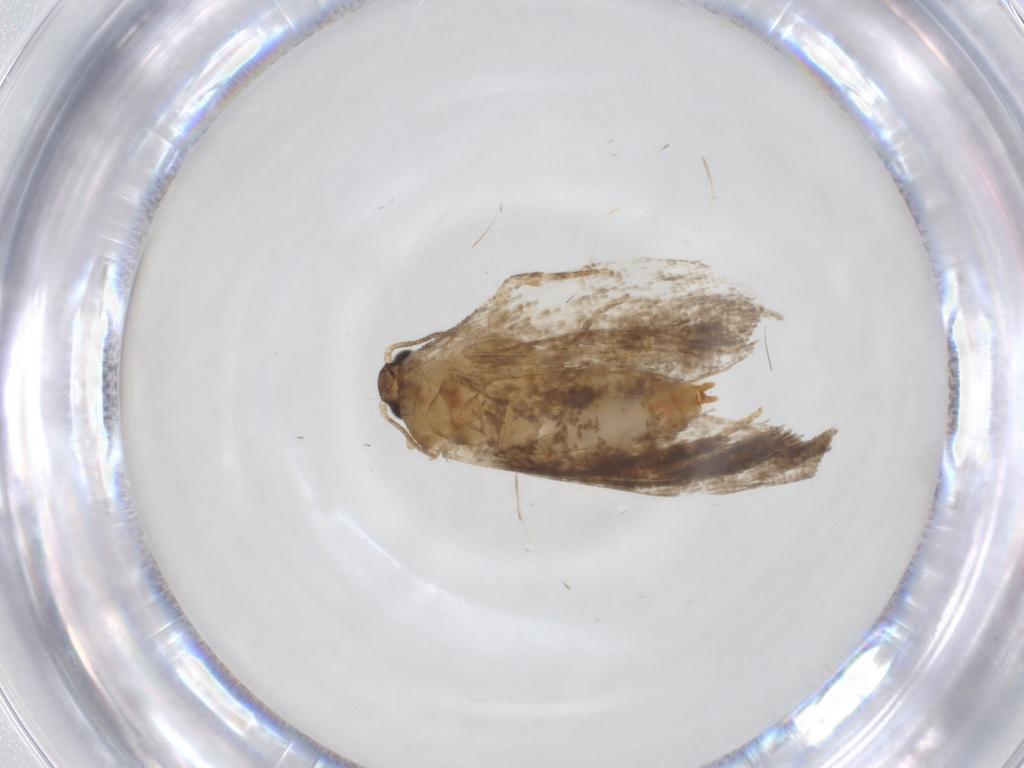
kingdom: Animalia
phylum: Arthropoda
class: Insecta
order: Lepidoptera
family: Tortricidae
